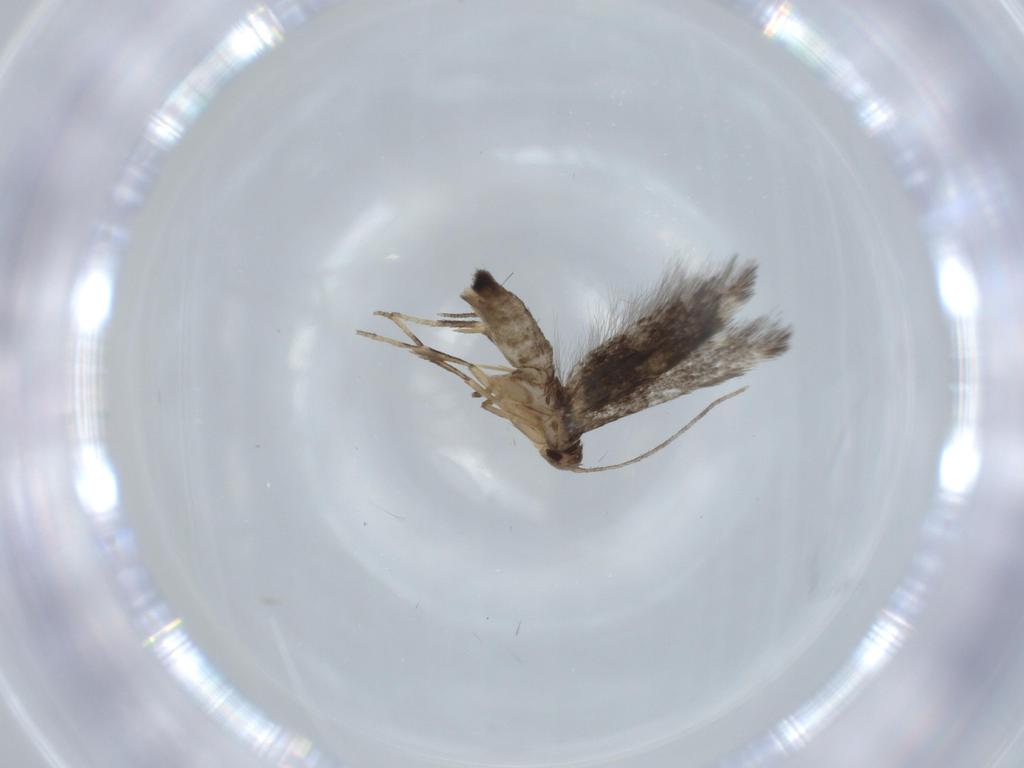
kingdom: Animalia
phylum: Arthropoda
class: Insecta
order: Lepidoptera
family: Cosmopterigidae
